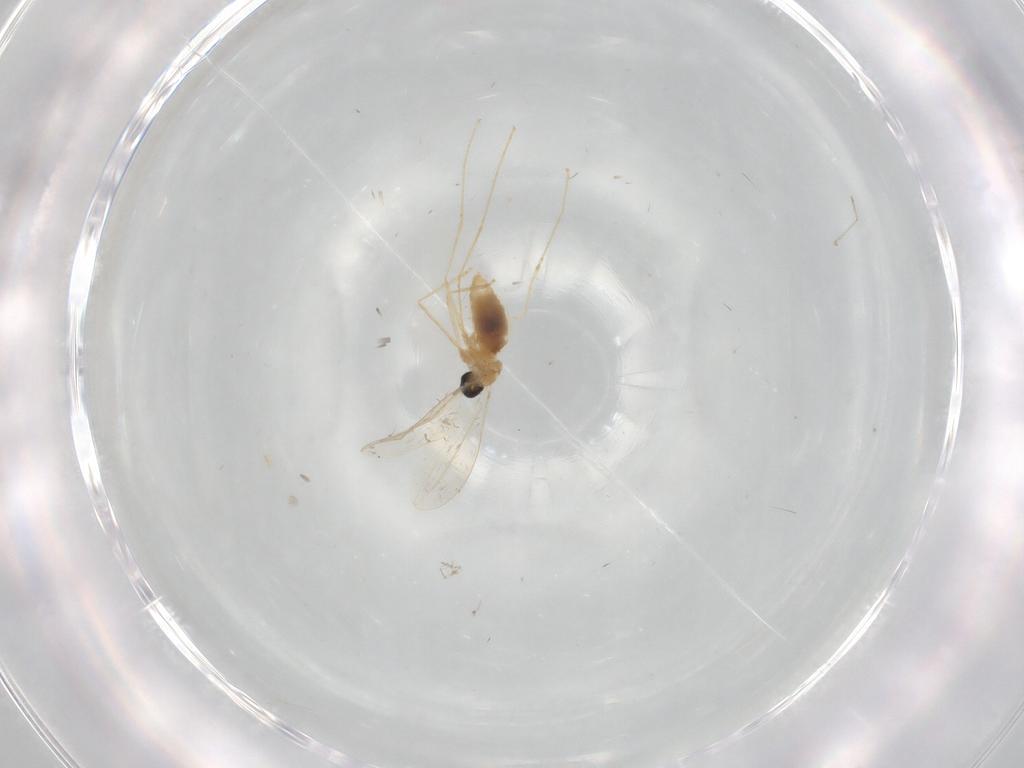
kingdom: Animalia
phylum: Arthropoda
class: Insecta
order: Diptera
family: Cecidomyiidae
